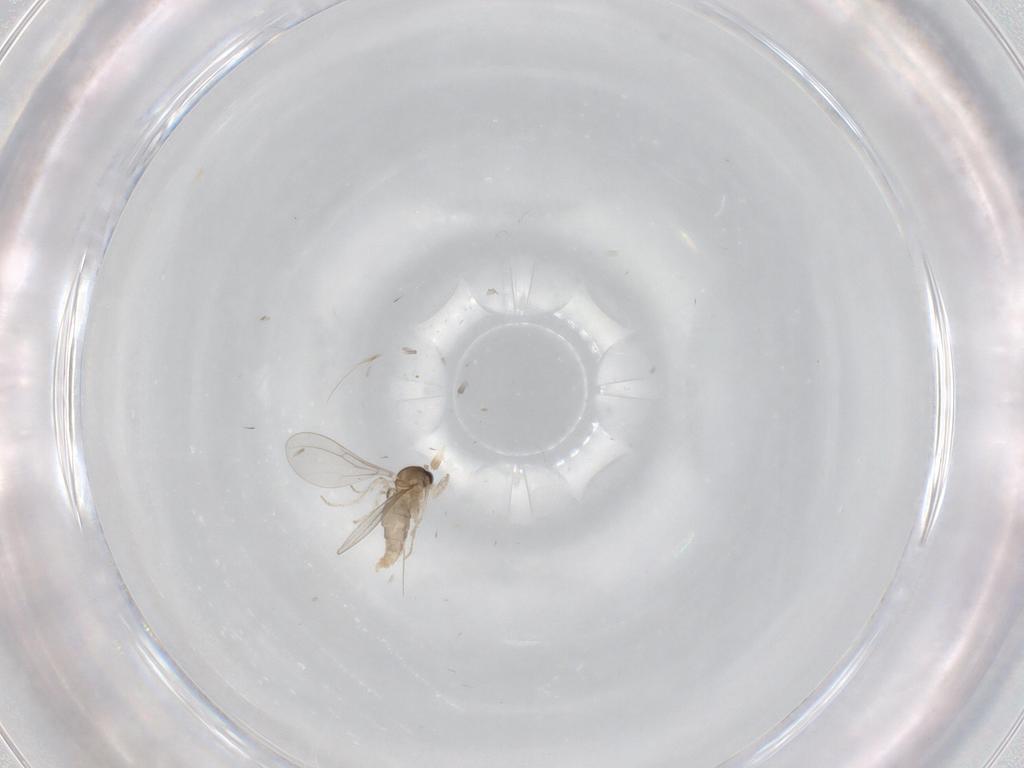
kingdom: Animalia
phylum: Arthropoda
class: Insecta
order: Diptera
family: Cecidomyiidae
